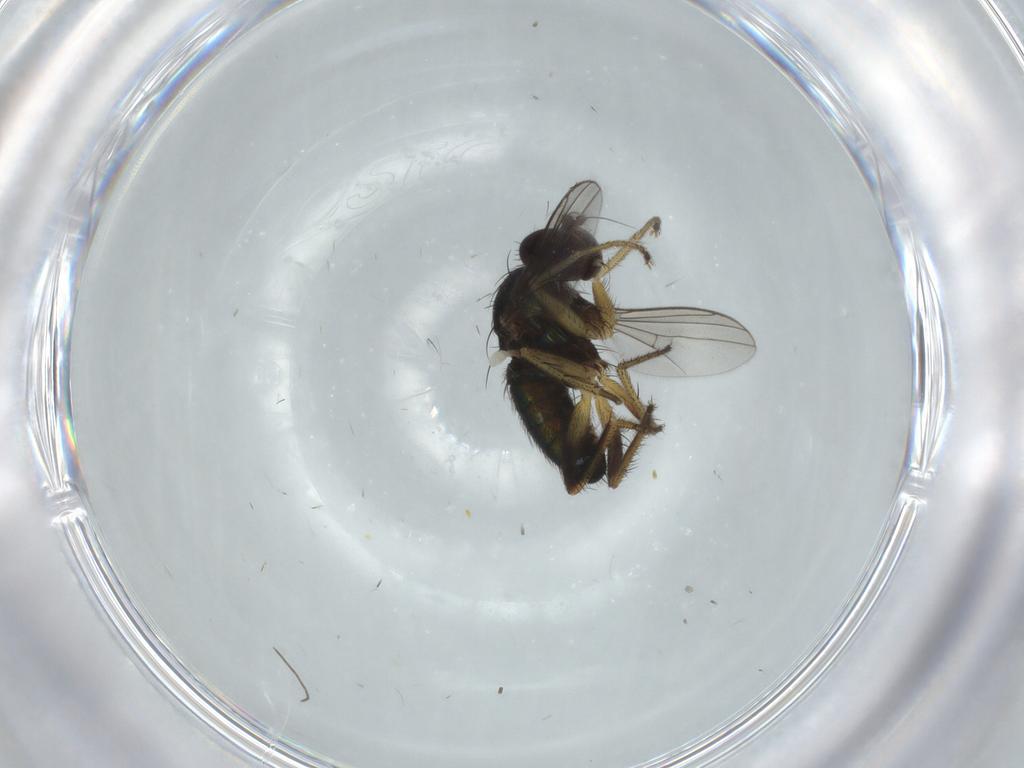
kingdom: Animalia
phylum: Arthropoda
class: Insecta
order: Diptera
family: Dolichopodidae
